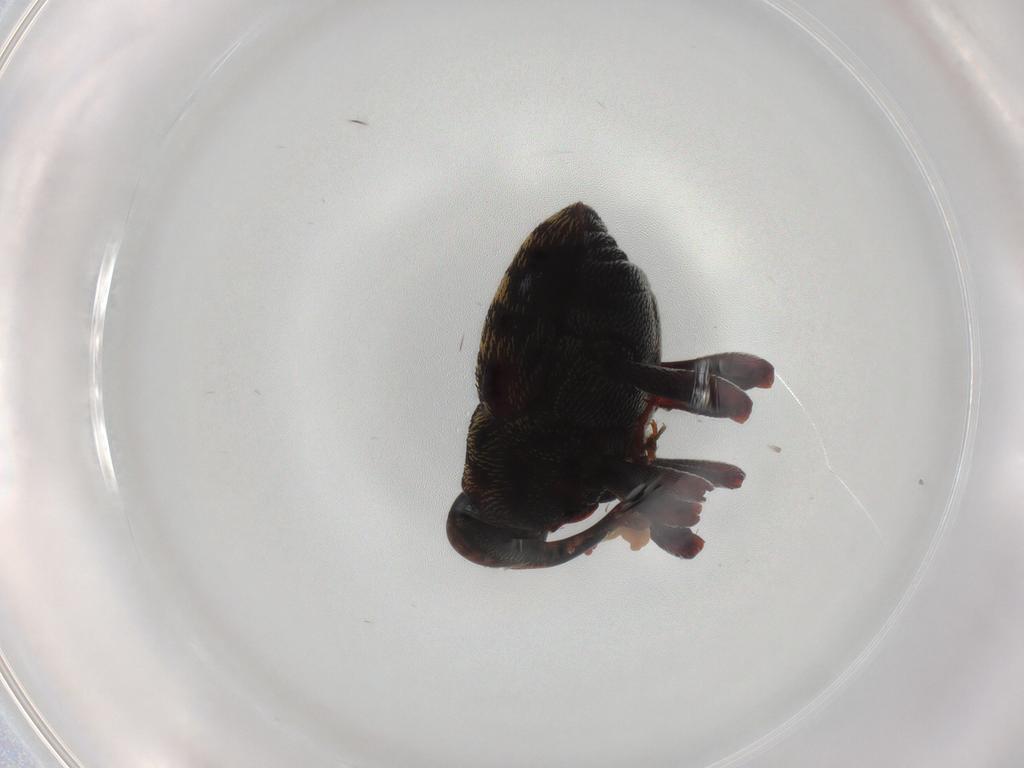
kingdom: Animalia
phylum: Arthropoda
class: Insecta
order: Coleoptera
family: Curculionidae
